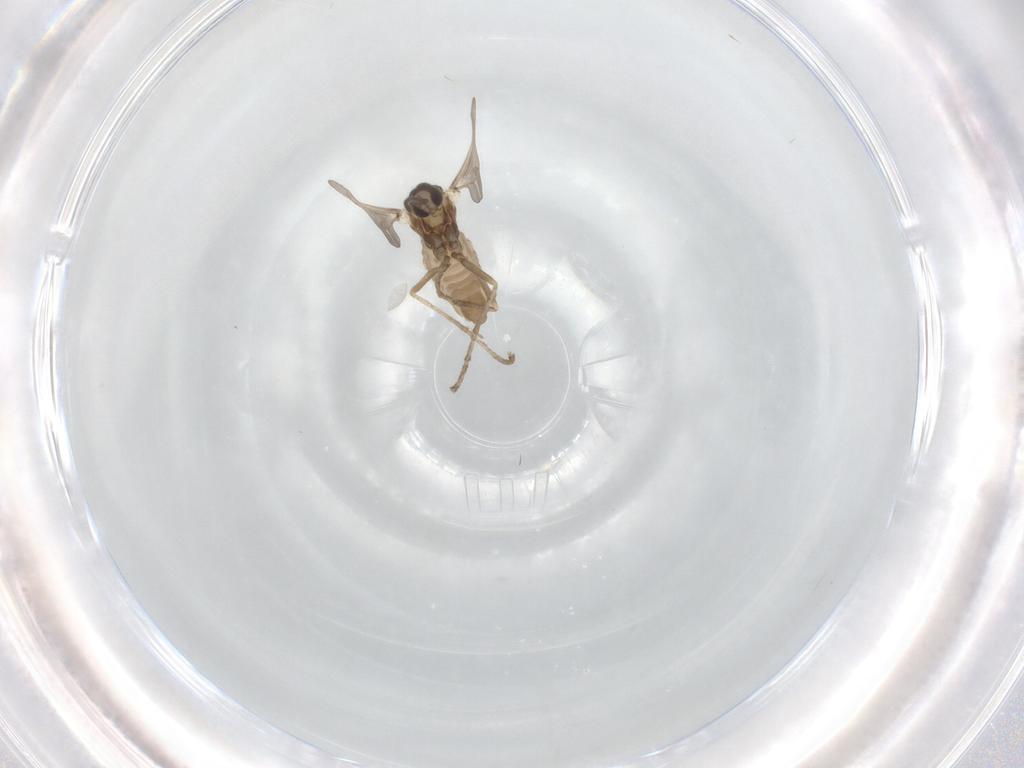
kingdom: Animalia
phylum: Arthropoda
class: Insecta
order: Diptera
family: Cecidomyiidae
